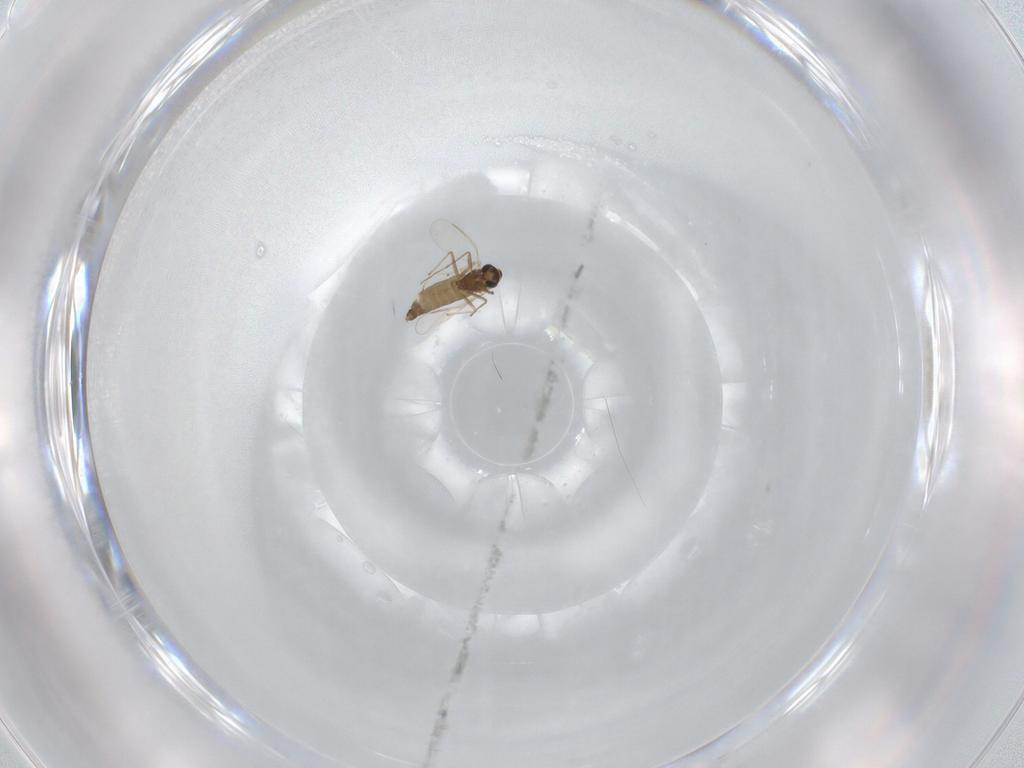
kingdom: Animalia
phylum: Arthropoda
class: Insecta
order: Diptera
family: Chironomidae
